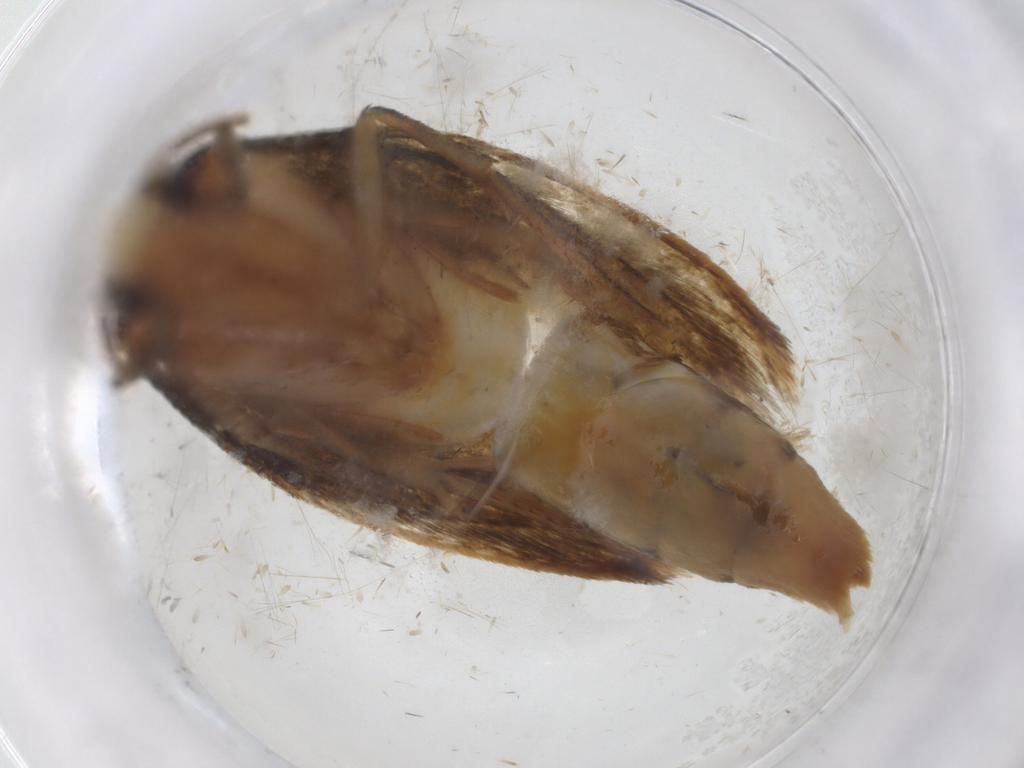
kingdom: Animalia
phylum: Arthropoda
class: Insecta
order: Lepidoptera
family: Tineidae
